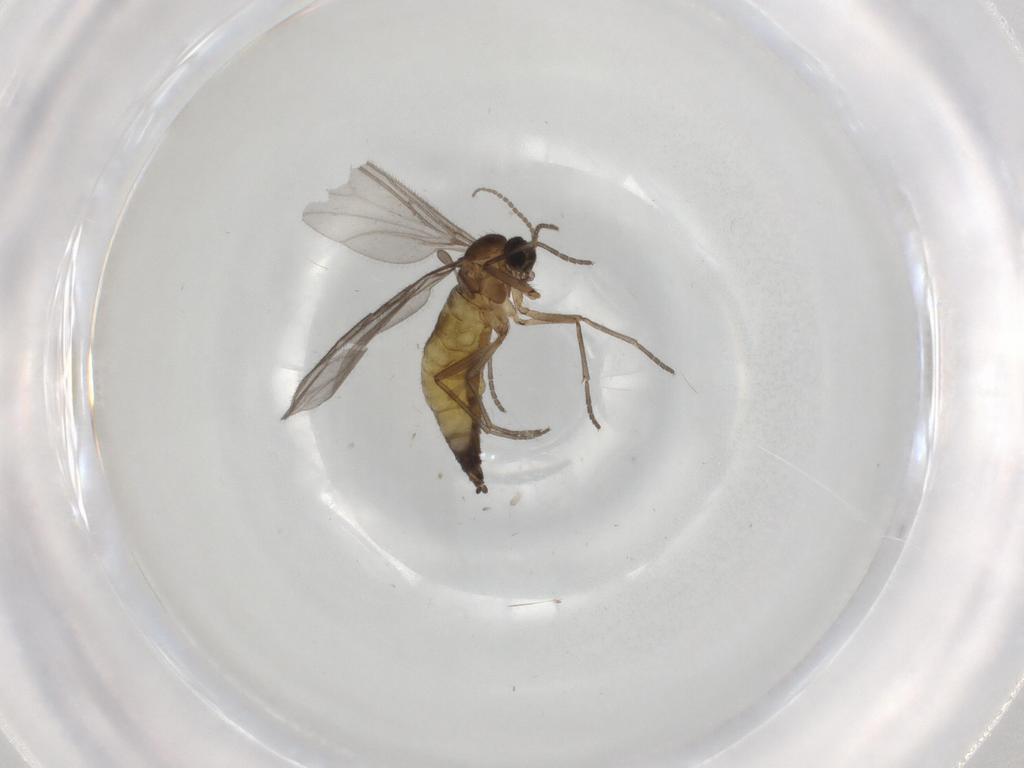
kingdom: Animalia
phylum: Arthropoda
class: Insecta
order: Diptera
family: Sciaridae
